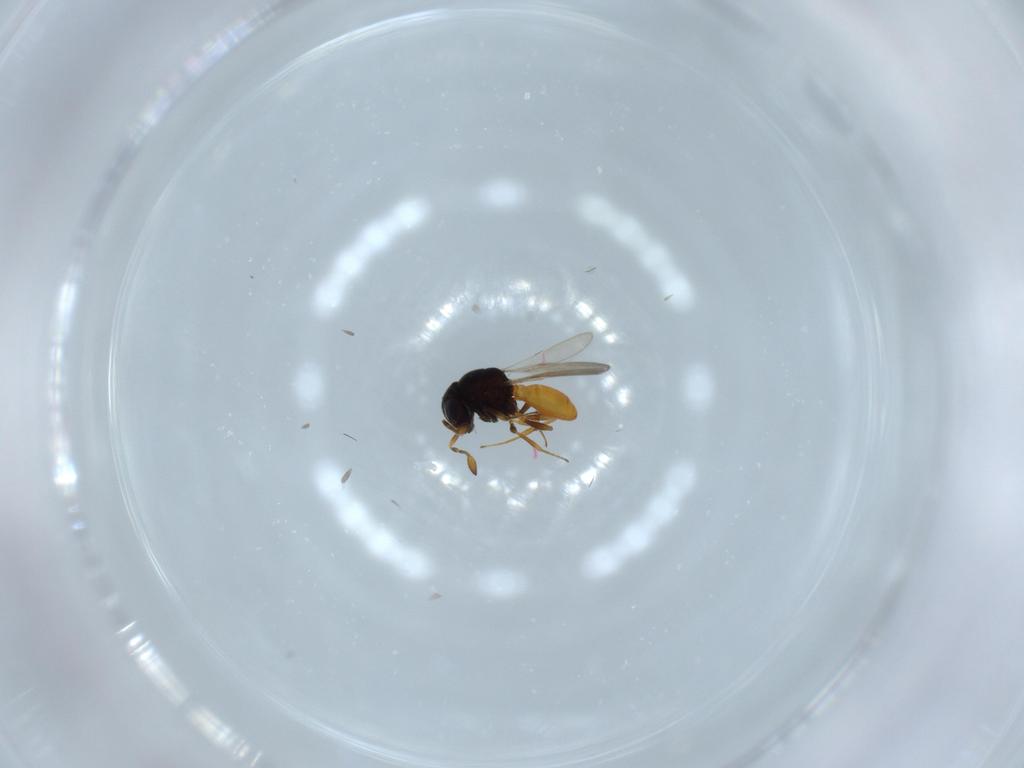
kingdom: Animalia
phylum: Arthropoda
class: Insecta
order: Hymenoptera
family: Scelionidae
